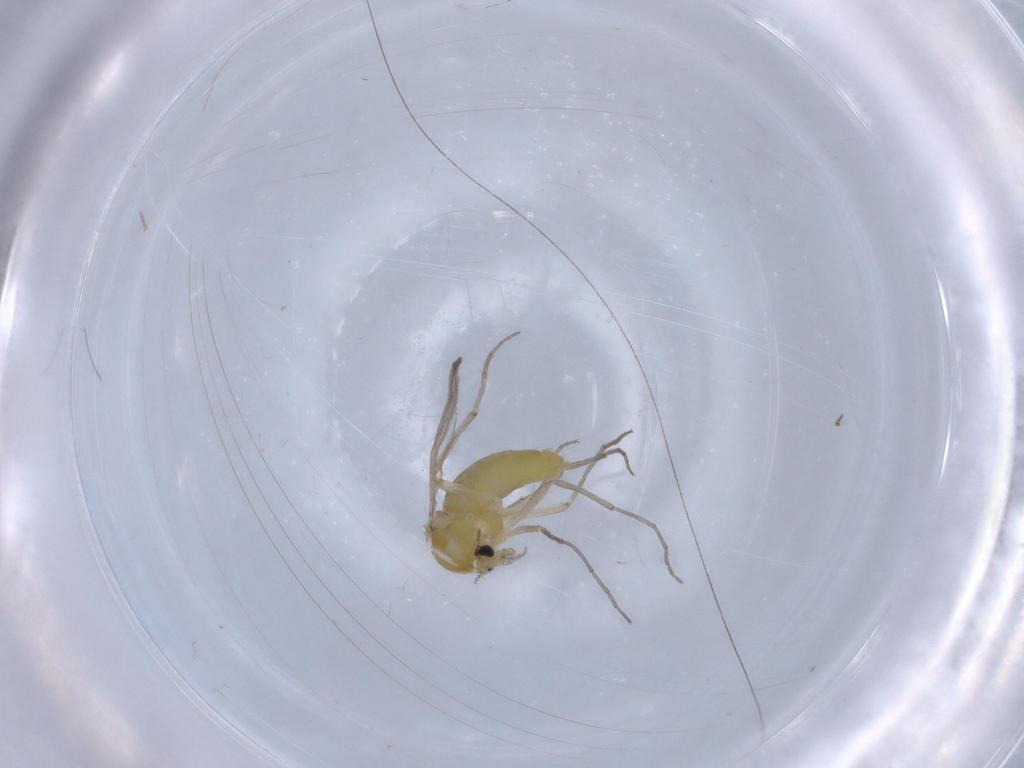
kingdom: Animalia
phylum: Arthropoda
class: Insecta
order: Diptera
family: Chironomidae
